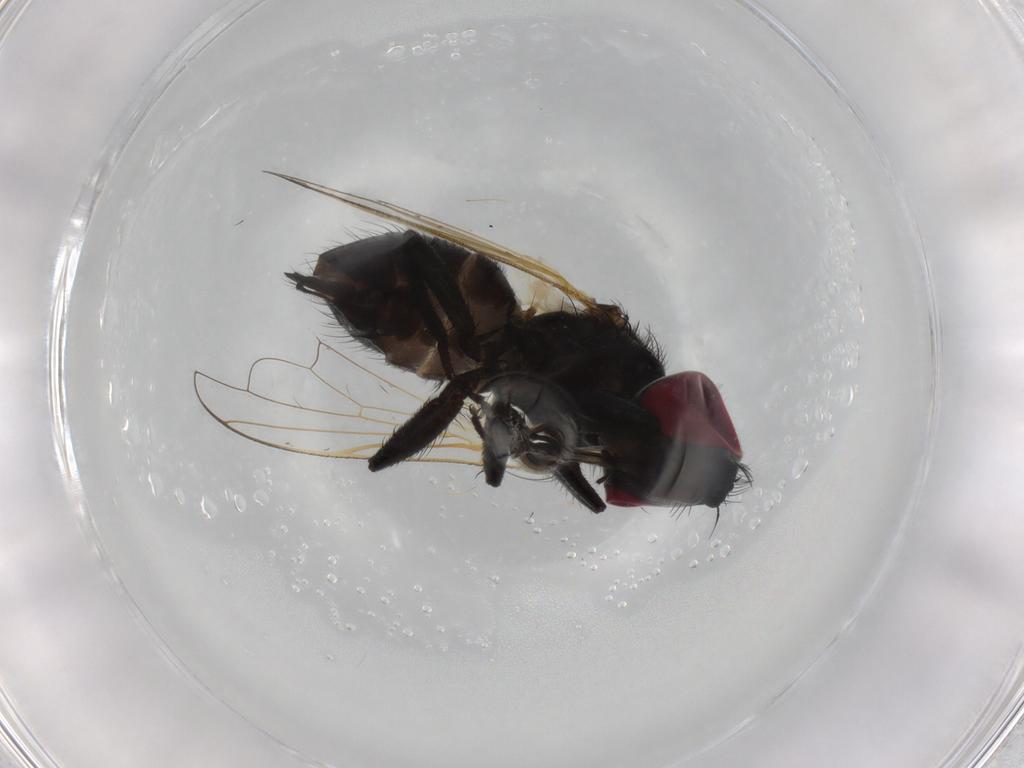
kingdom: Animalia
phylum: Arthropoda
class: Insecta
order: Diptera
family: Tachinidae
